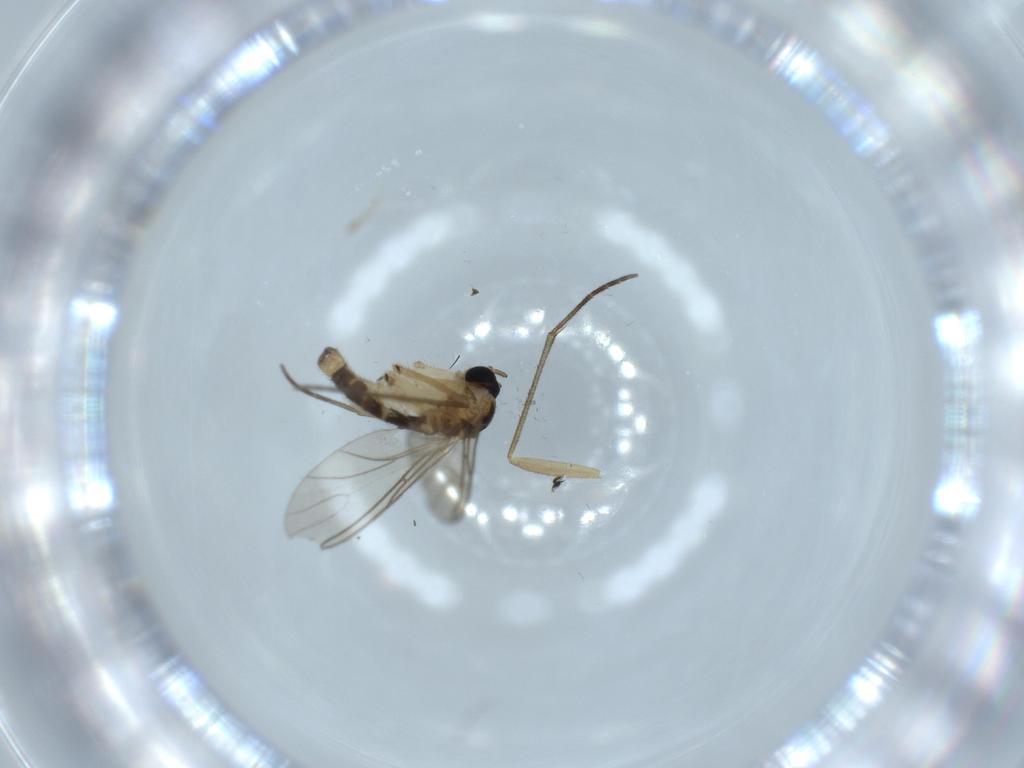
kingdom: Animalia
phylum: Arthropoda
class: Insecta
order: Diptera
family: Sciaridae
